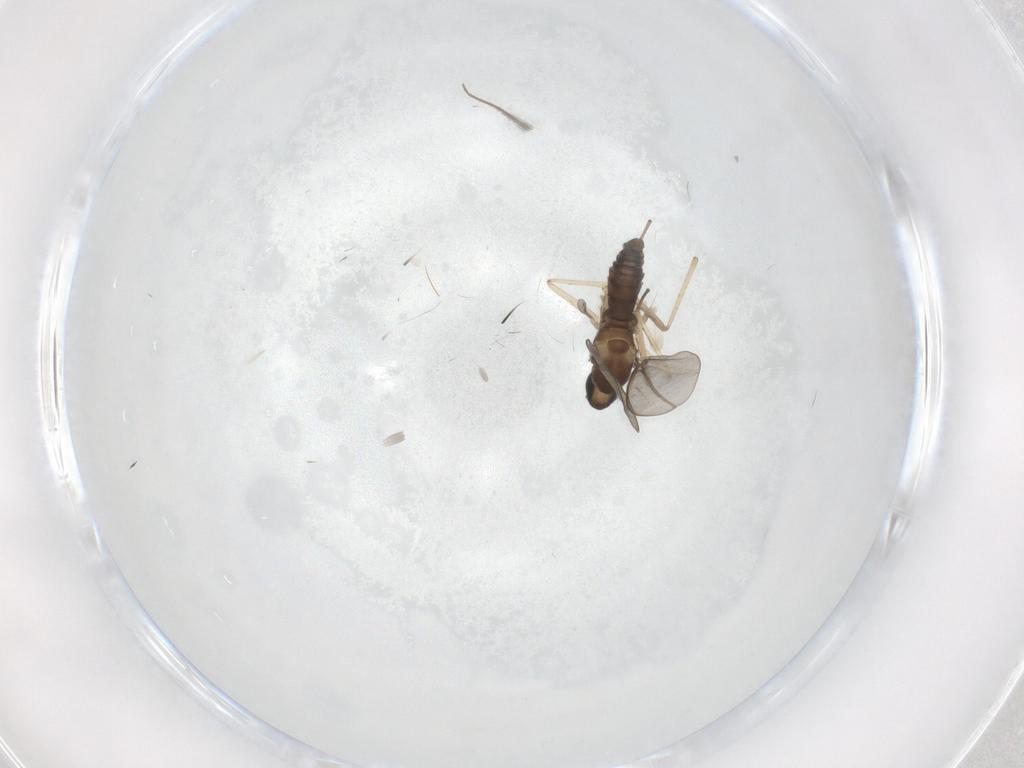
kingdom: Animalia
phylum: Arthropoda
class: Insecta
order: Diptera
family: Cecidomyiidae
